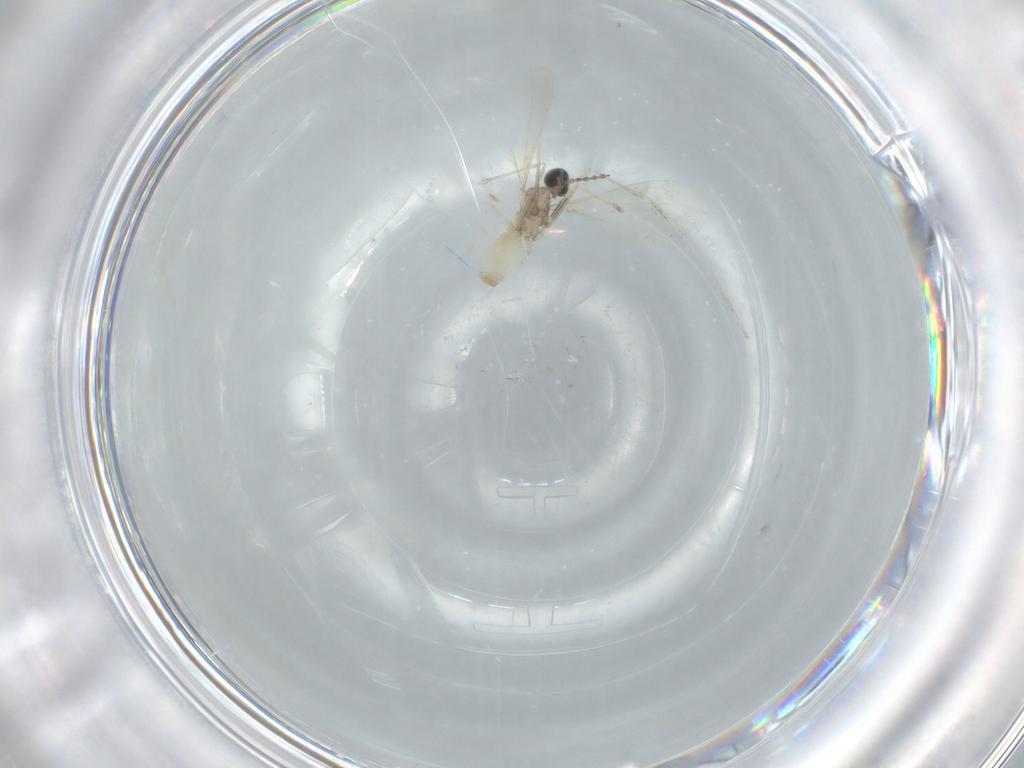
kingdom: Animalia
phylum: Arthropoda
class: Insecta
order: Diptera
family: Cecidomyiidae
